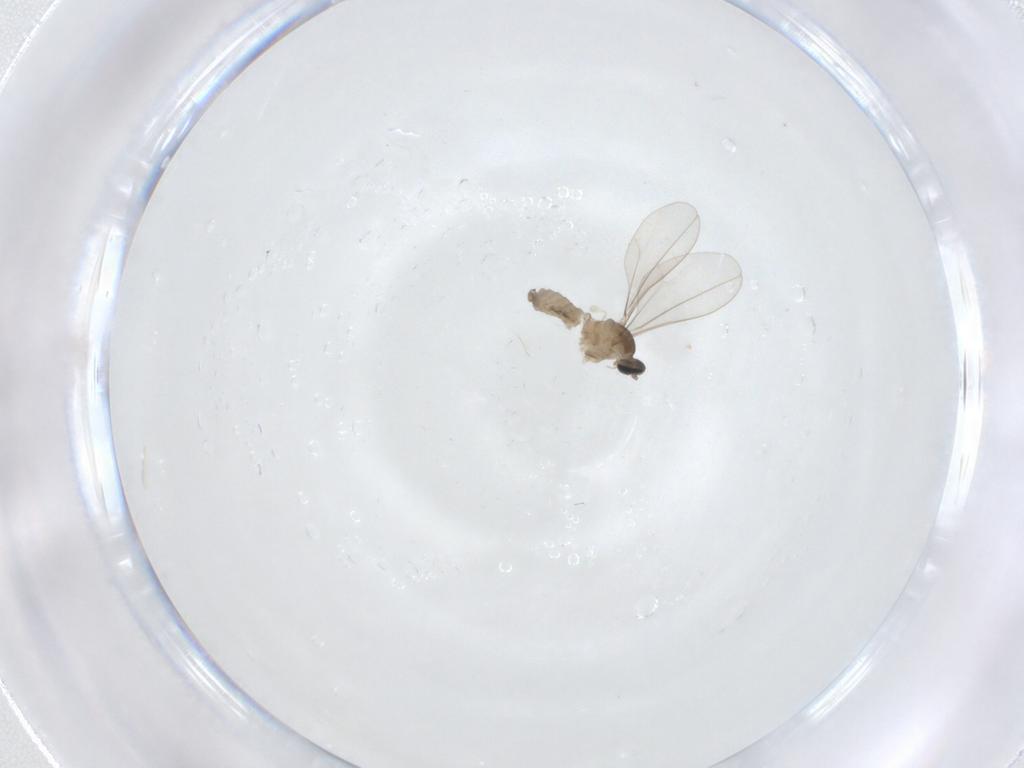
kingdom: Animalia
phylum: Arthropoda
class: Insecta
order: Diptera
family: Cecidomyiidae
